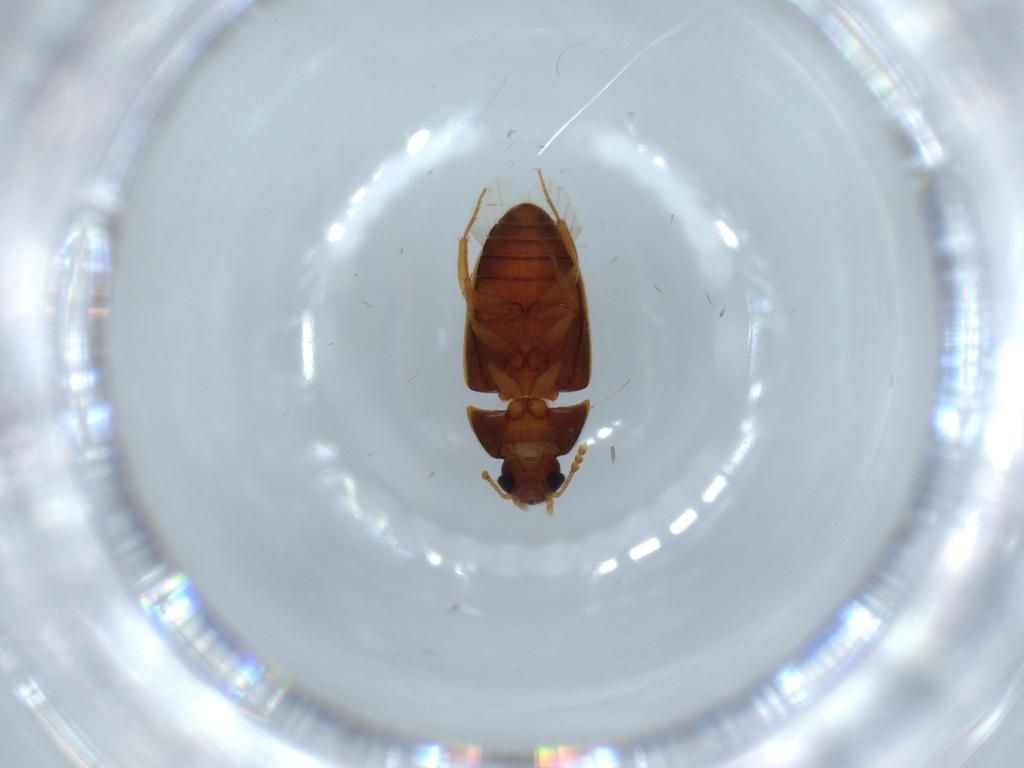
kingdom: Animalia
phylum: Arthropoda
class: Insecta
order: Coleoptera
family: Mycetophagidae
